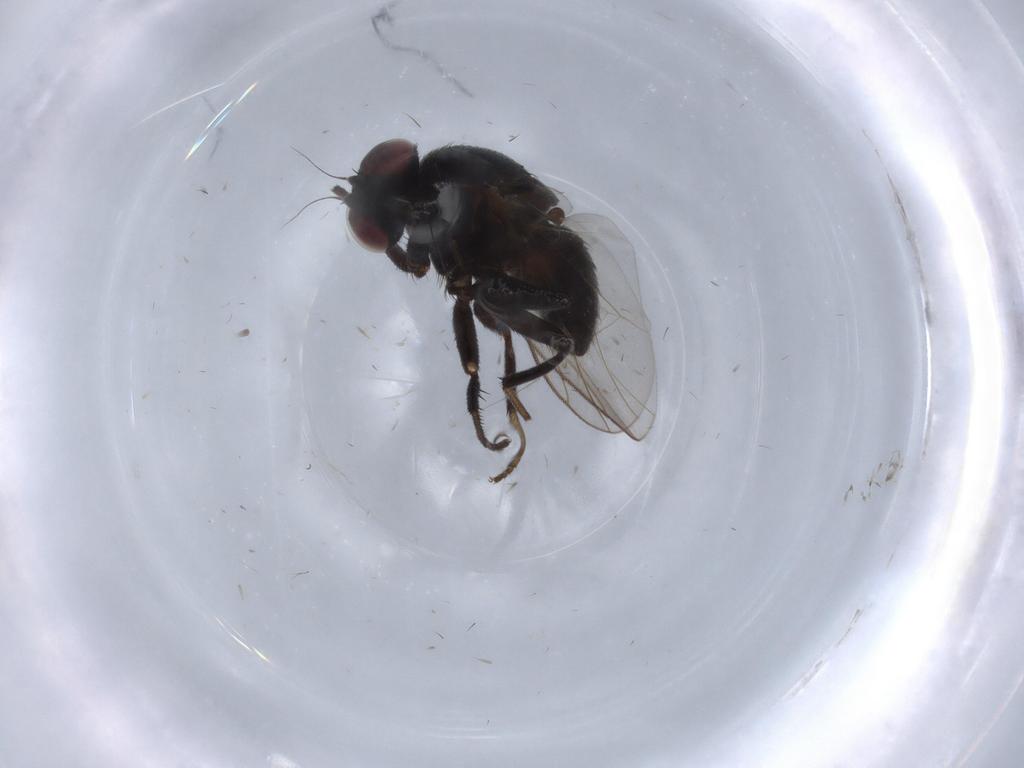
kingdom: Animalia
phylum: Arthropoda
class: Insecta
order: Diptera
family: Agromyzidae
